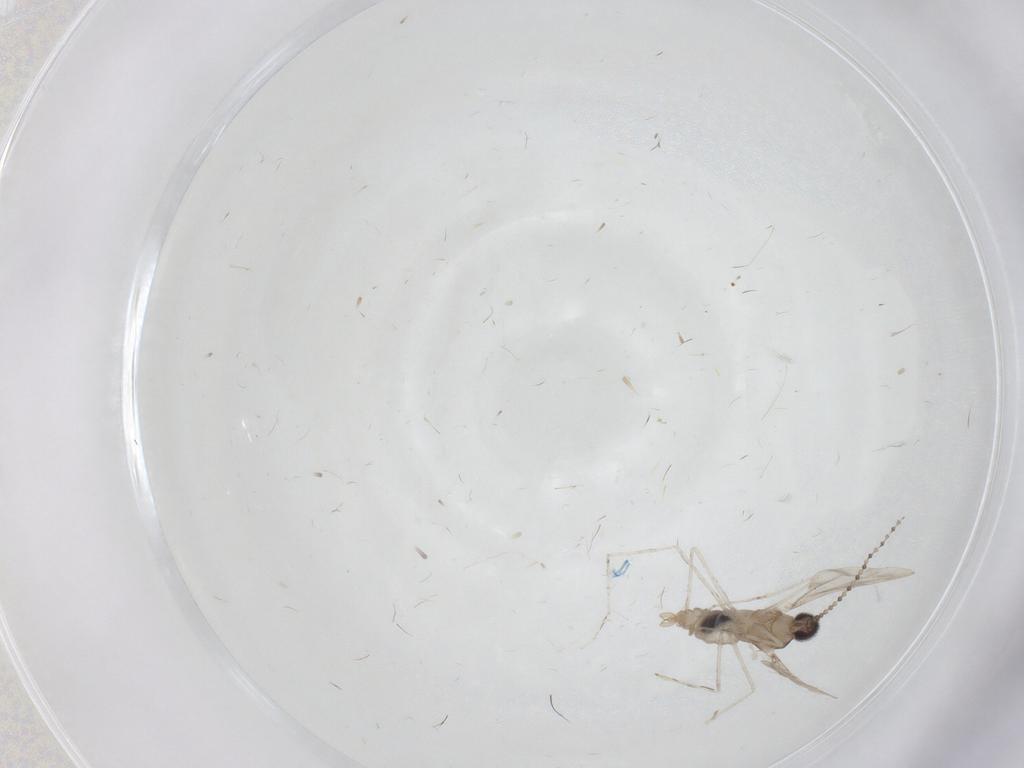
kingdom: Animalia
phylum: Arthropoda
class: Insecta
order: Diptera
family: Cecidomyiidae
